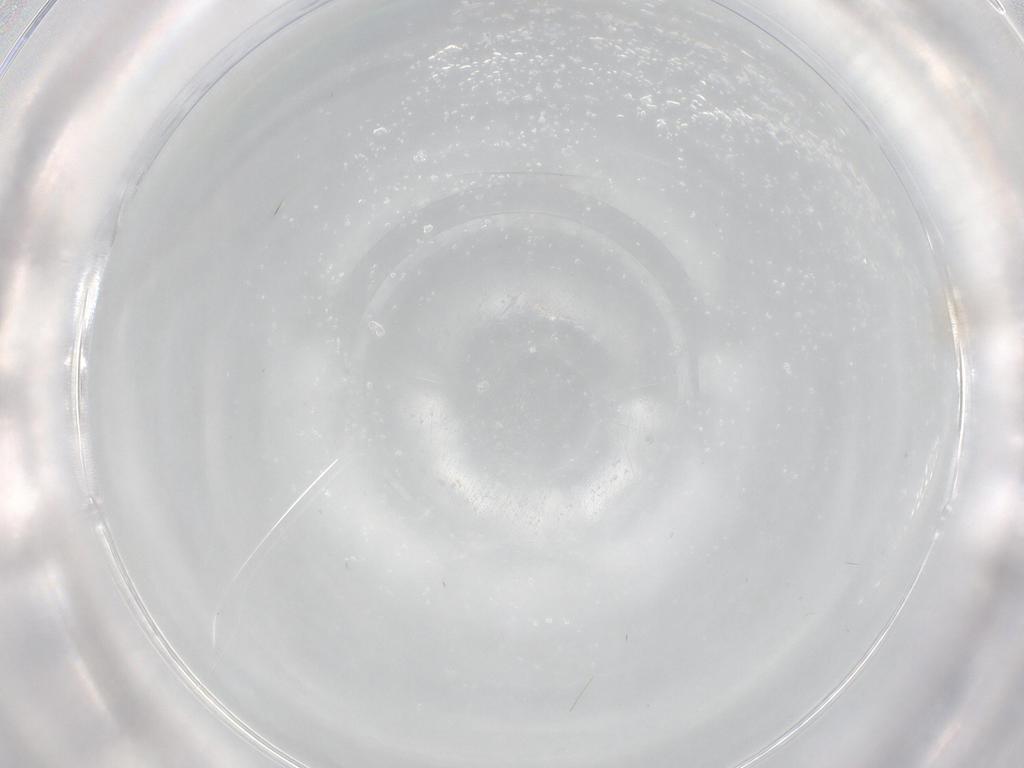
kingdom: Animalia
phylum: Arthropoda
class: Insecta
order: Diptera
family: Cecidomyiidae
